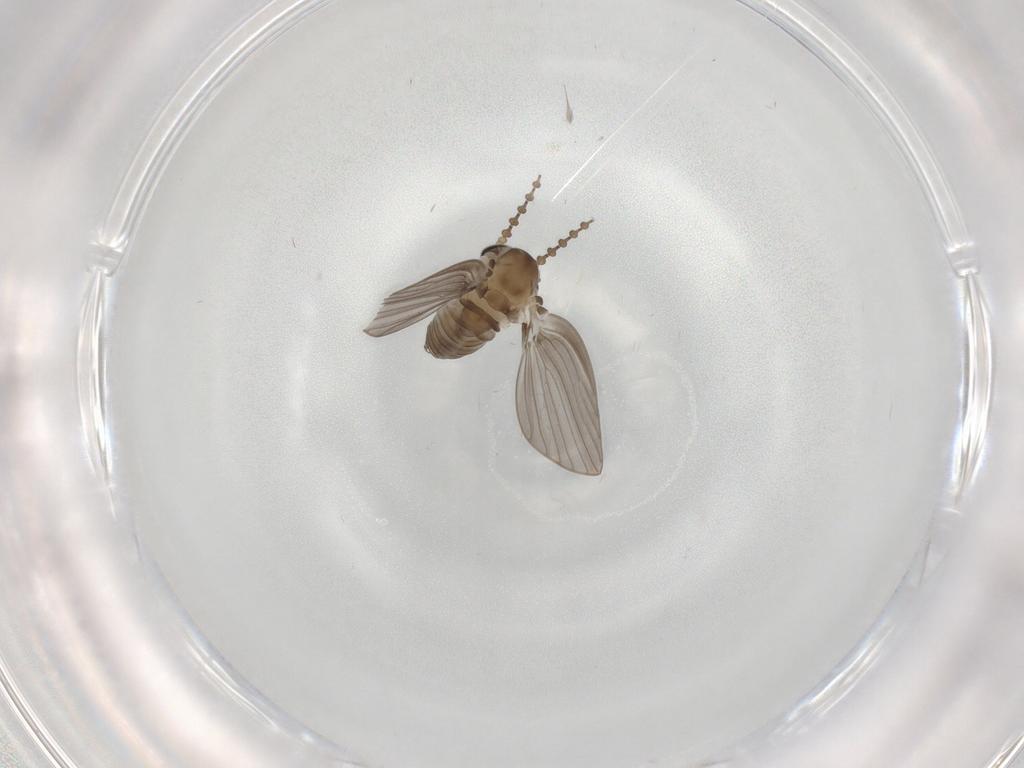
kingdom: Animalia
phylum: Arthropoda
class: Insecta
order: Diptera
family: Psychodidae
